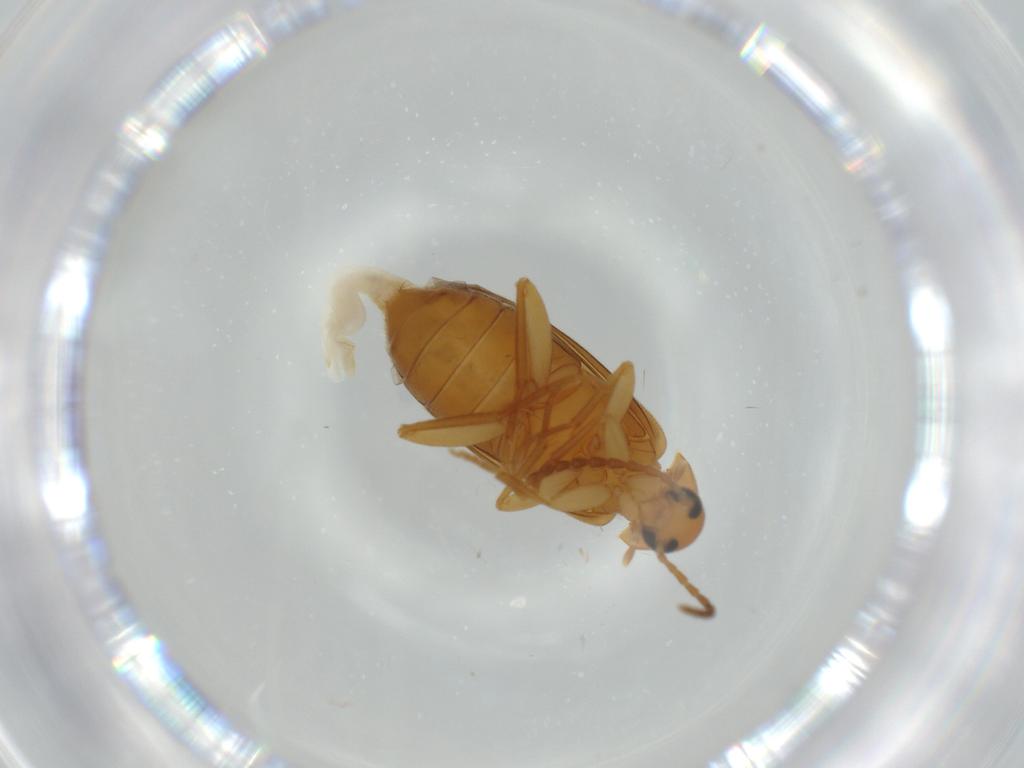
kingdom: Animalia
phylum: Arthropoda
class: Insecta
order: Coleoptera
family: Scraptiidae
